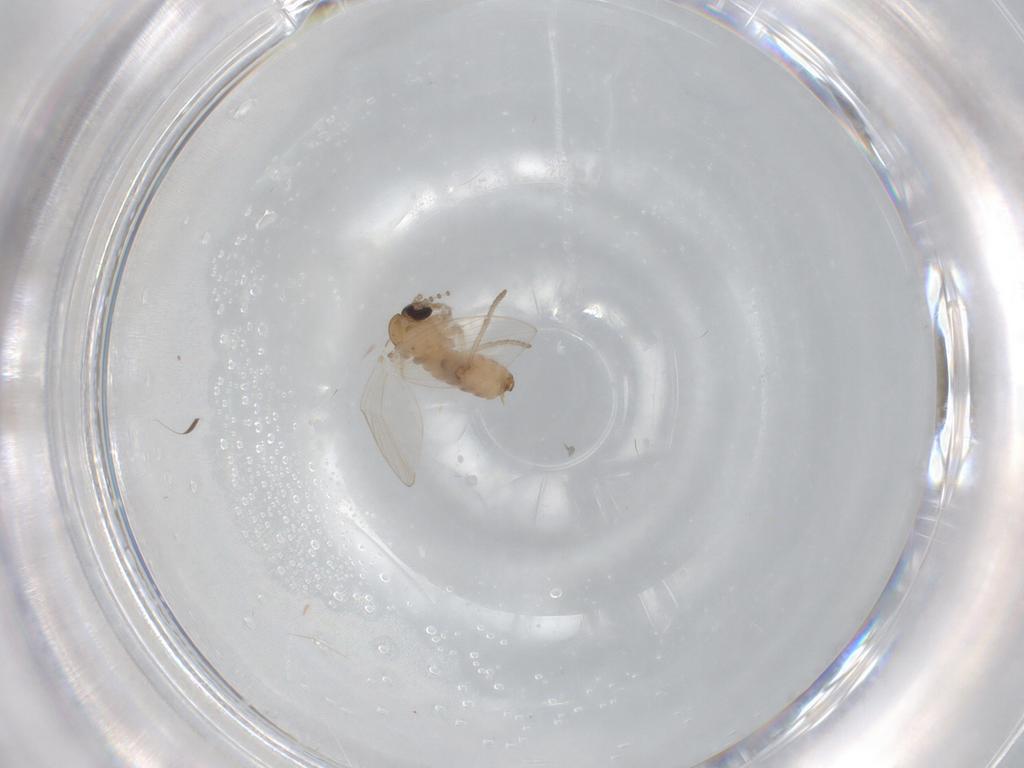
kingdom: Animalia
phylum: Arthropoda
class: Insecta
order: Diptera
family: Psychodidae
